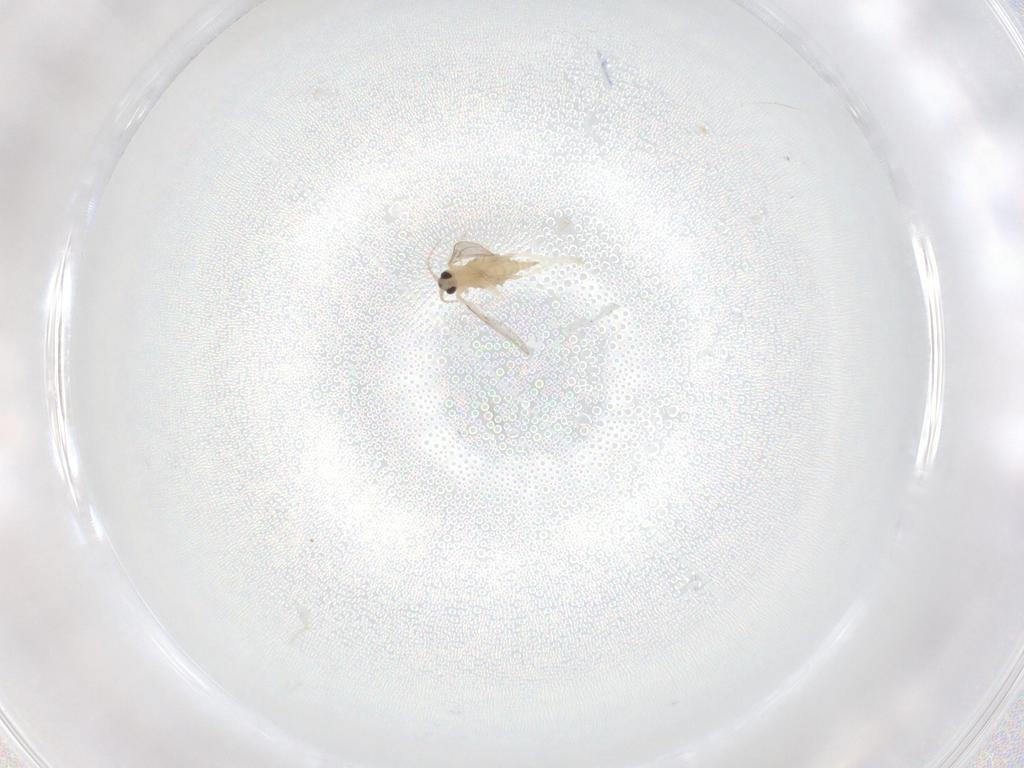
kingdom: Animalia
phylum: Arthropoda
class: Insecta
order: Diptera
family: Cecidomyiidae
